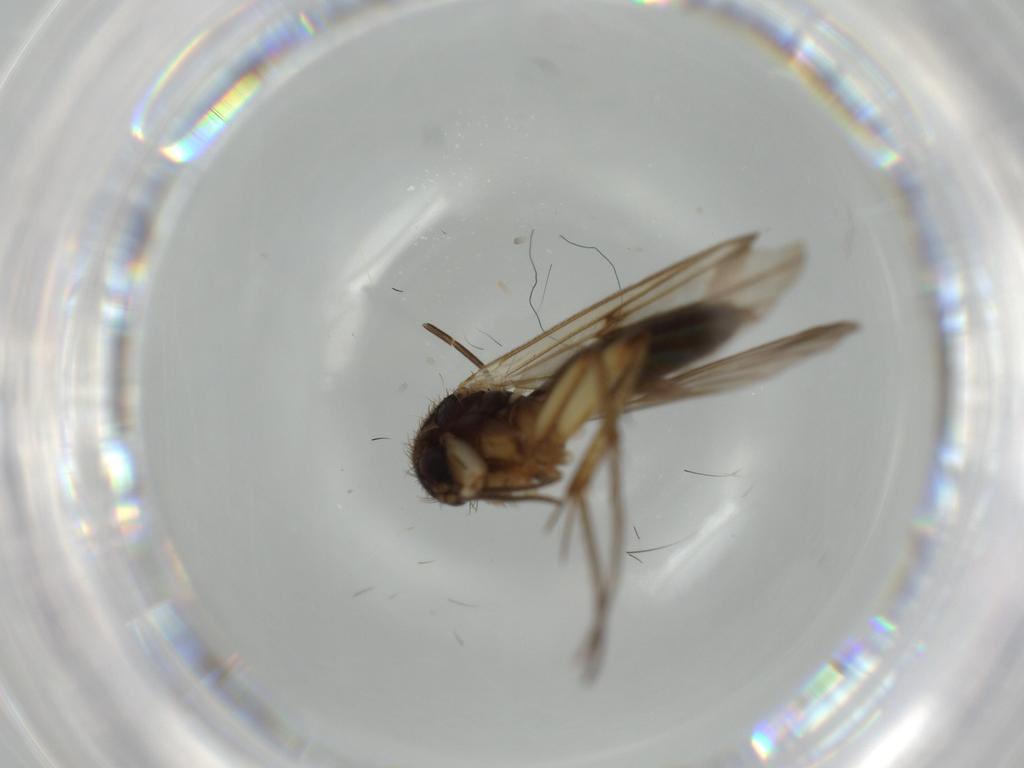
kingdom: Animalia
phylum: Arthropoda
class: Insecta
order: Diptera
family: Mycetophilidae
